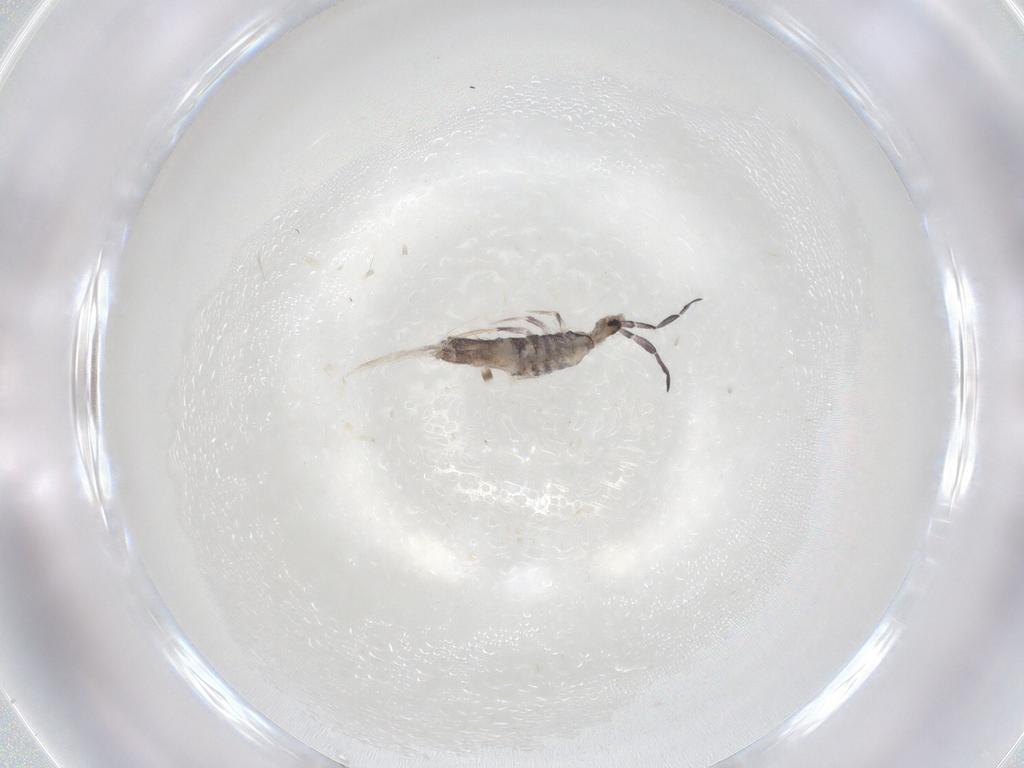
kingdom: Animalia
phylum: Arthropoda
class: Collembola
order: Entomobryomorpha
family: Entomobryidae
